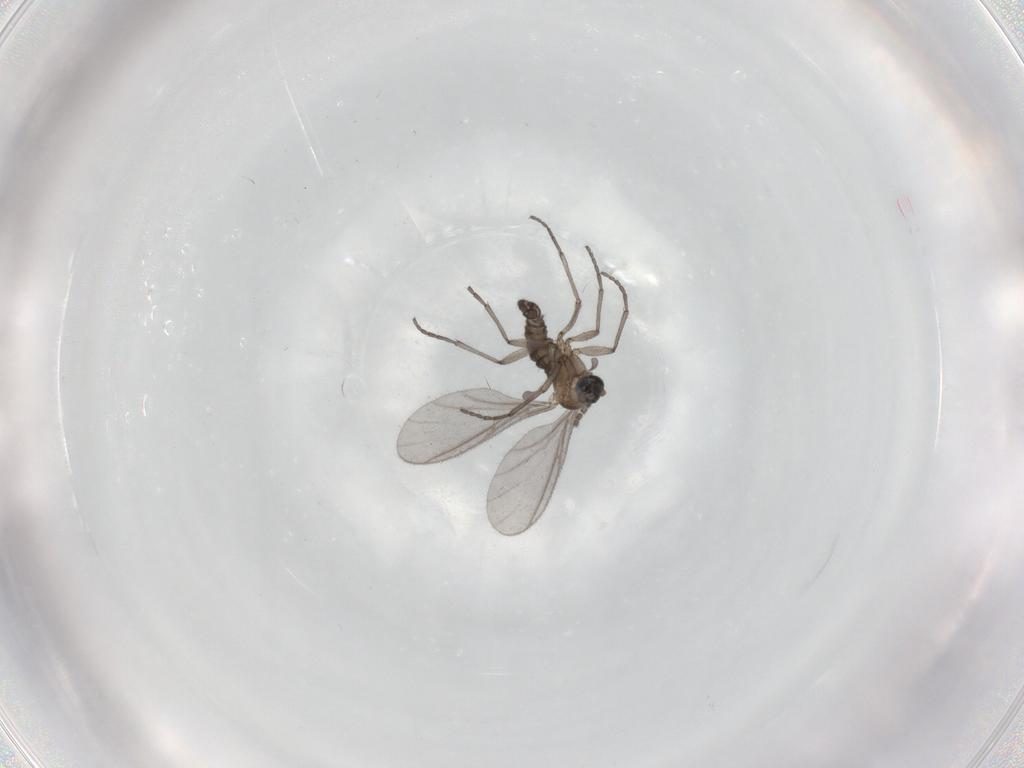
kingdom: Animalia
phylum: Arthropoda
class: Insecta
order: Diptera
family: Sciaridae
